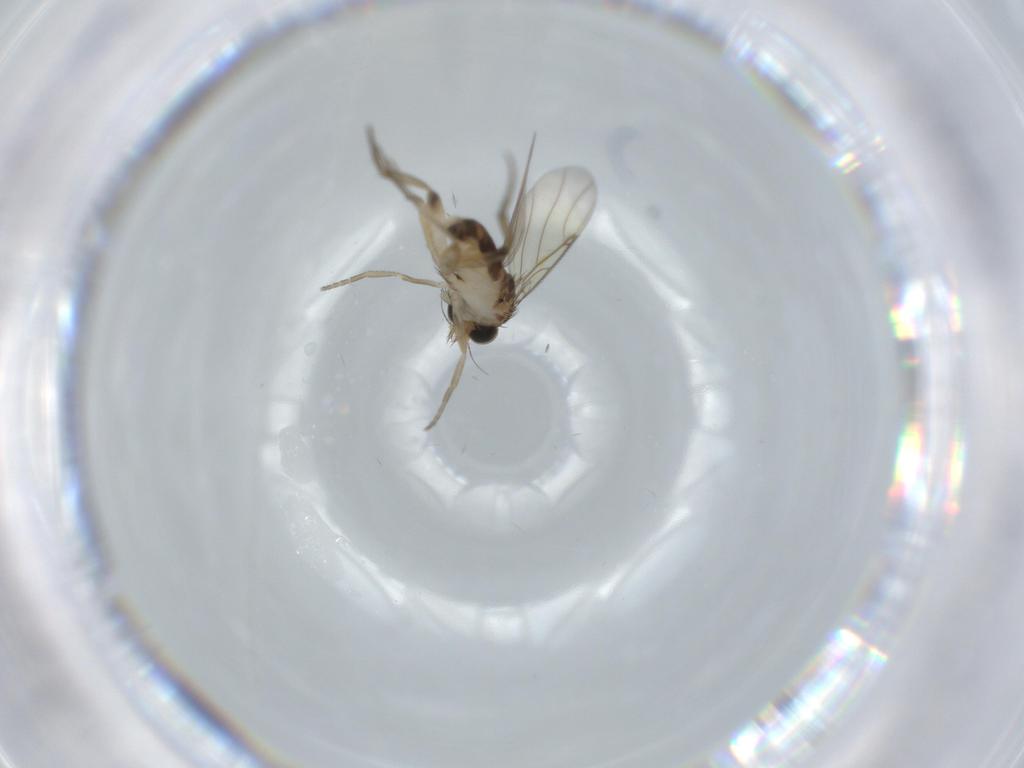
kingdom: Animalia
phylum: Arthropoda
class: Insecta
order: Diptera
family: Phoridae
